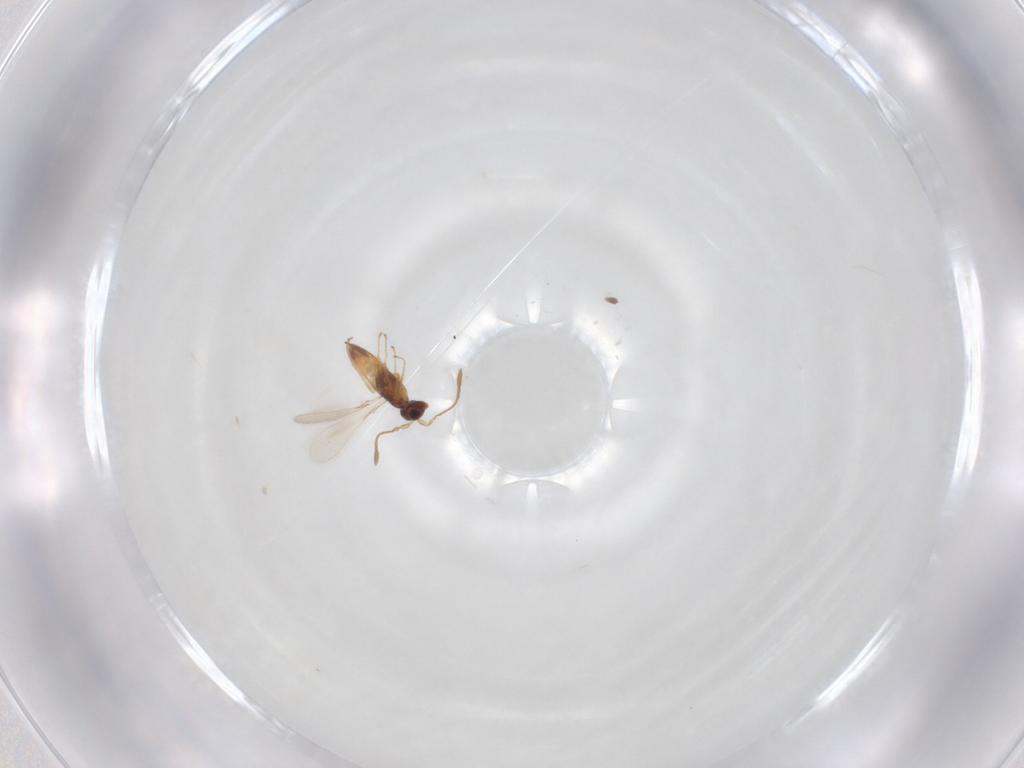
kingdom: Animalia
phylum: Arthropoda
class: Insecta
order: Hymenoptera
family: Mymaridae
